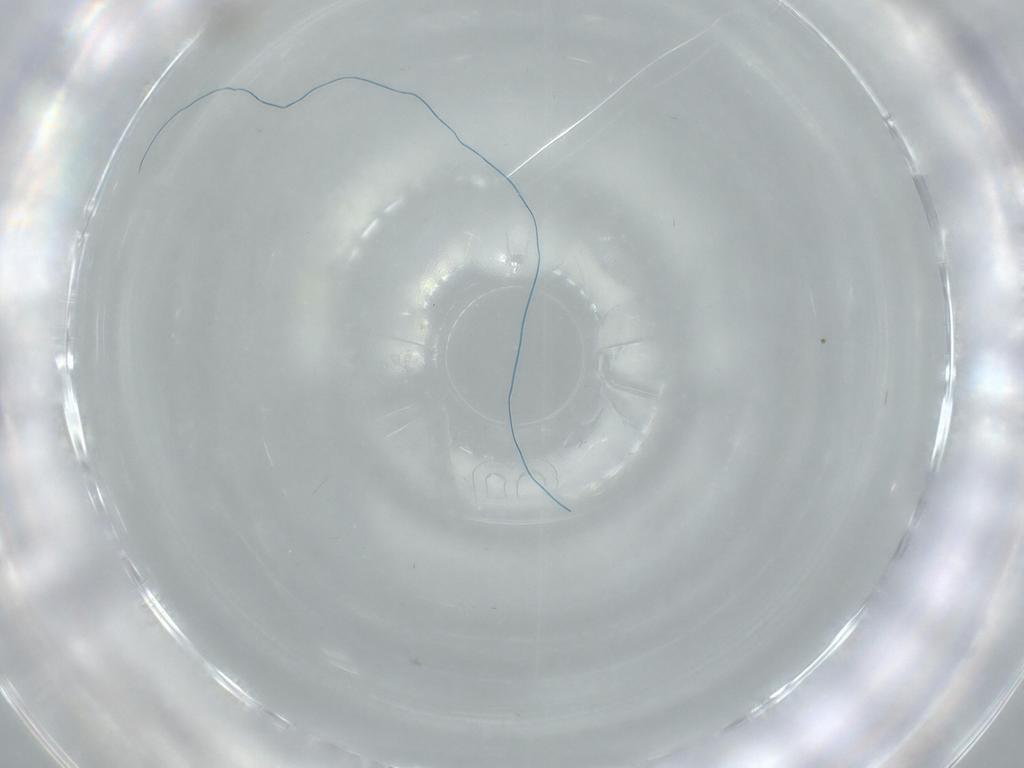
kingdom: Animalia
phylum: Arthropoda
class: Insecta
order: Diptera
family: Cecidomyiidae
